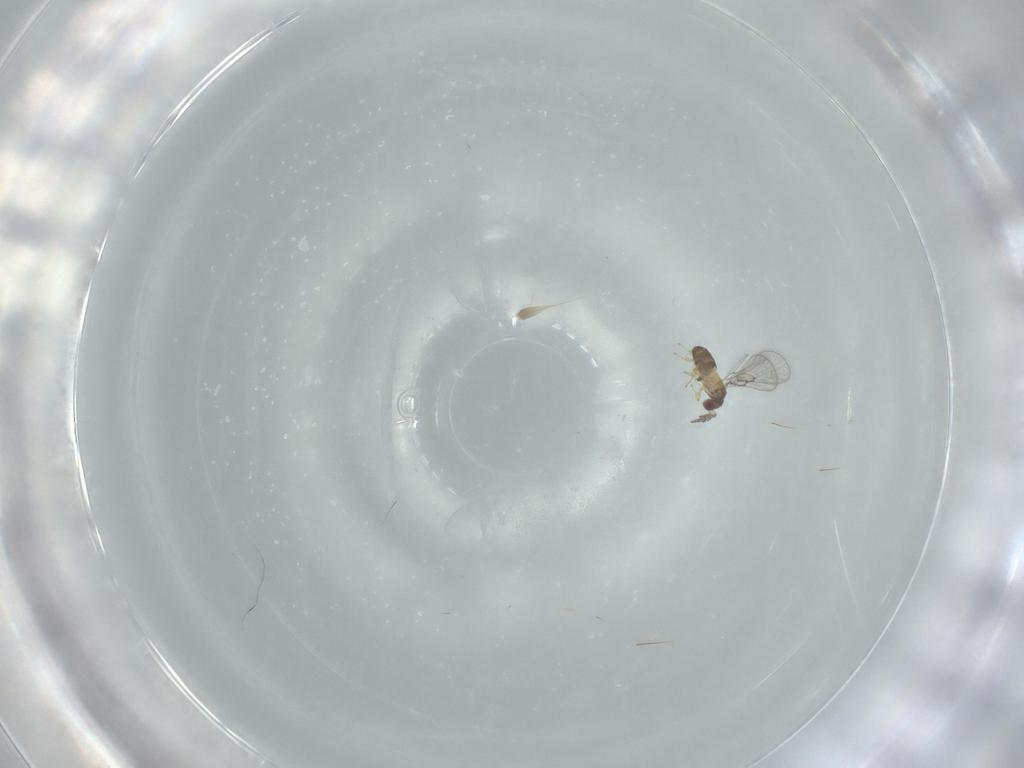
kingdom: Animalia
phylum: Arthropoda
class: Insecta
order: Hymenoptera
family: Trichogrammatidae
